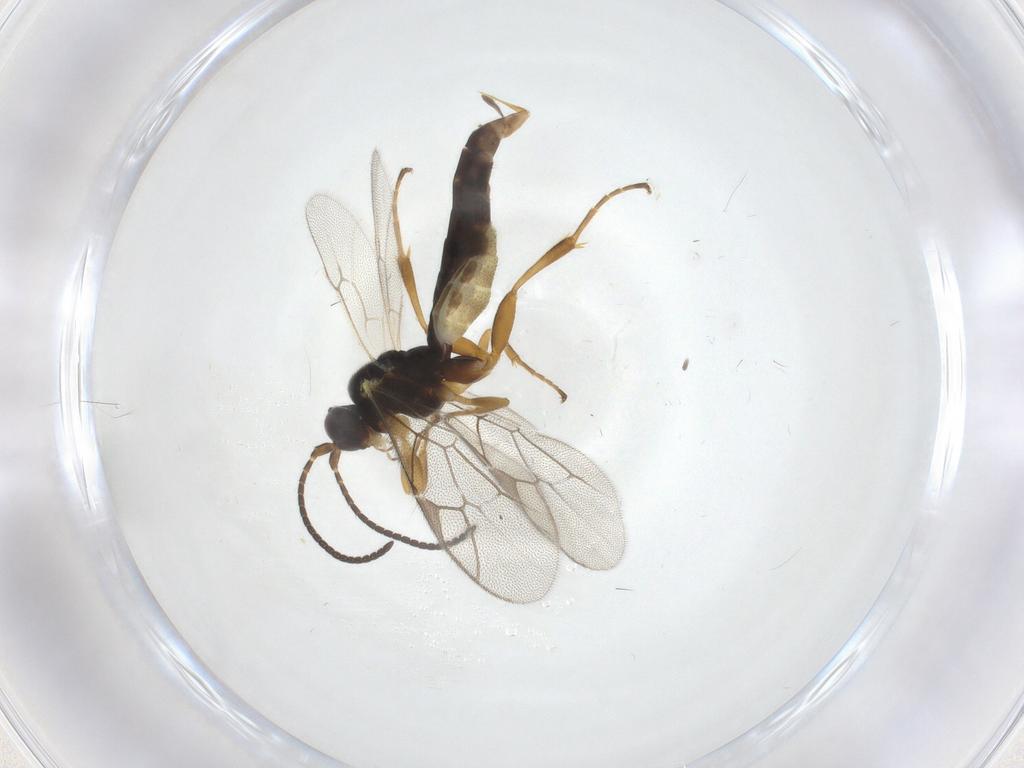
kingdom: Animalia
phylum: Arthropoda
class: Insecta
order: Hymenoptera
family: Ichneumonidae
